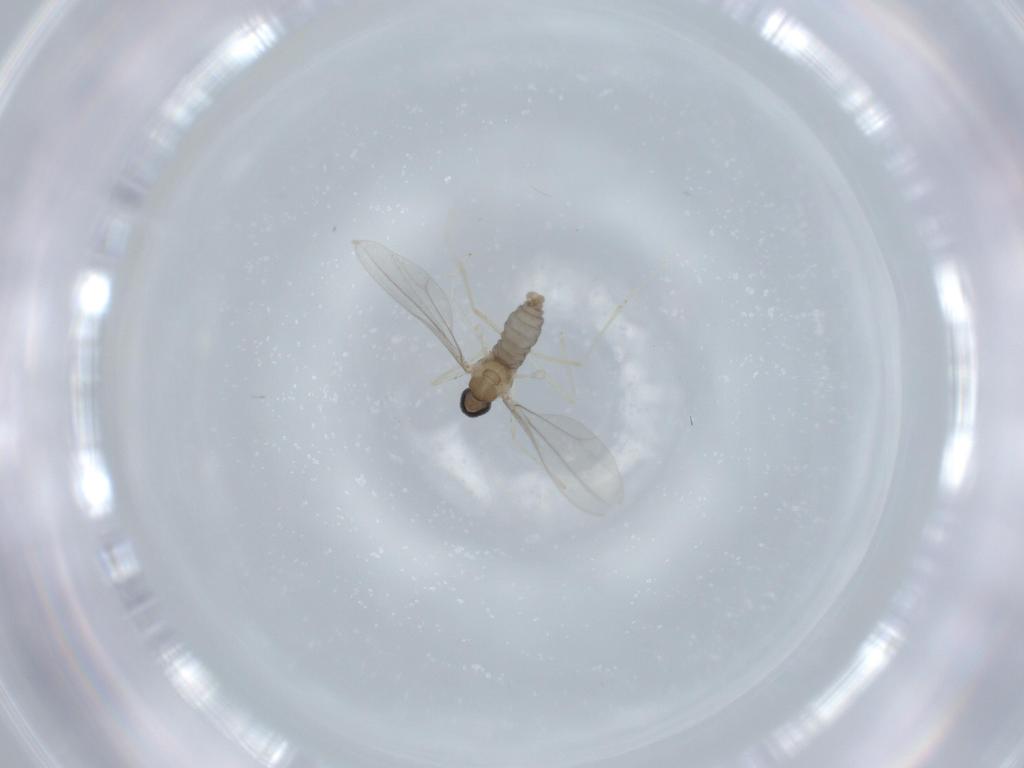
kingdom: Animalia
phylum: Arthropoda
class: Insecta
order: Diptera
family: Cecidomyiidae
